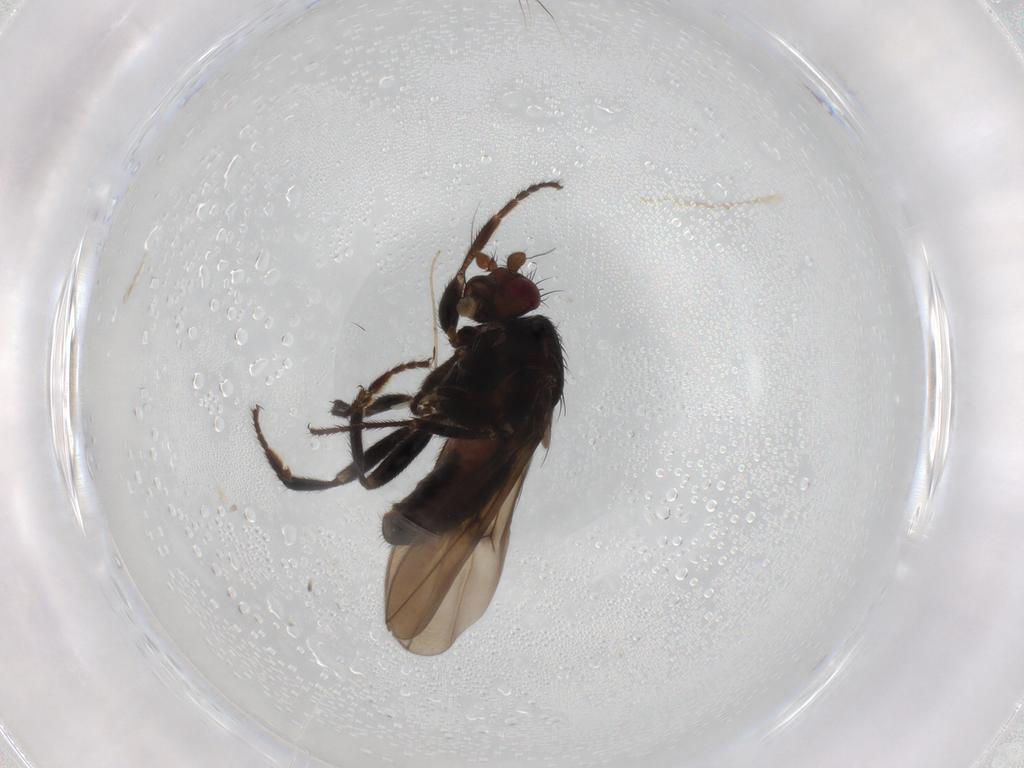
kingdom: Animalia
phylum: Arthropoda
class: Insecta
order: Diptera
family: Sphaeroceridae
